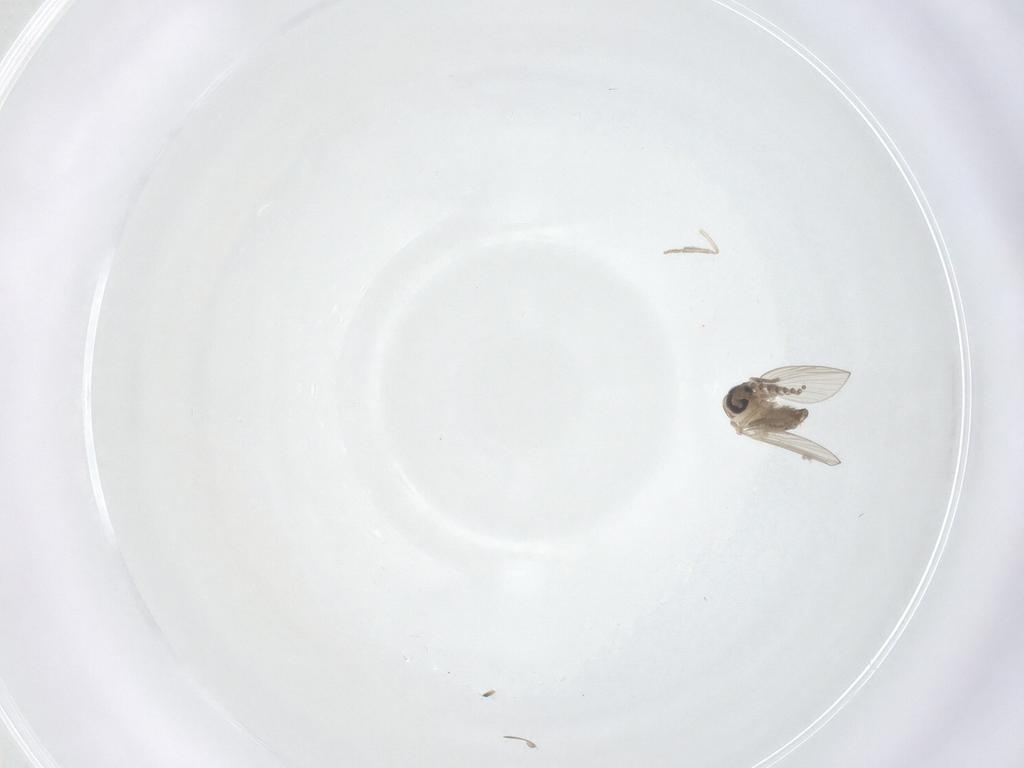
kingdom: Animalia
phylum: Arthropoda
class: Insecta
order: Diptera
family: Psychodidae
